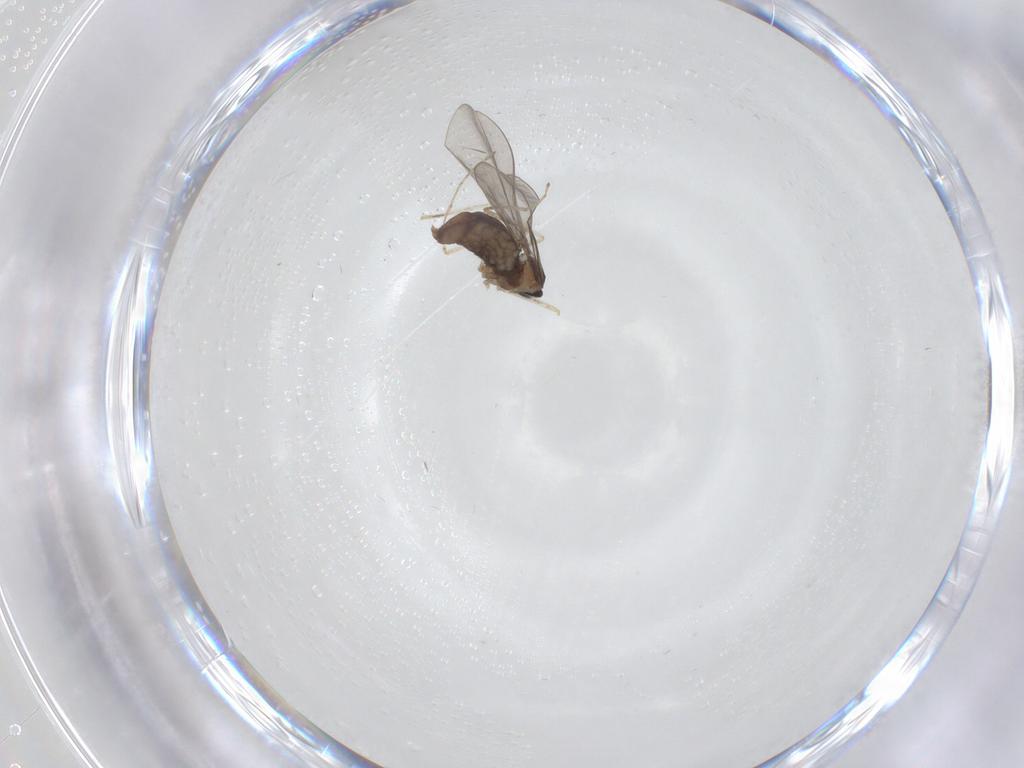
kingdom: Animalia
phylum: Arthropoda
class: Insecta
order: Diptera
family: Cecidomyiidae
